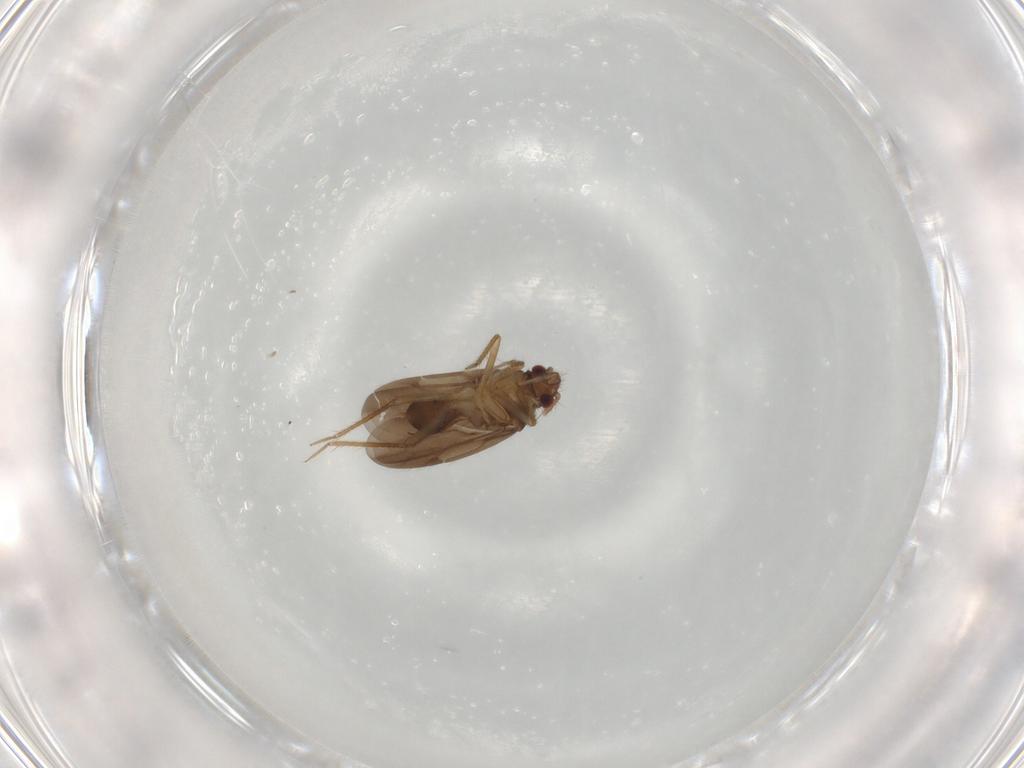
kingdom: Animalia
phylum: Arthropoda
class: Insecta
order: Hemiptera
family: Ceratocombidae
